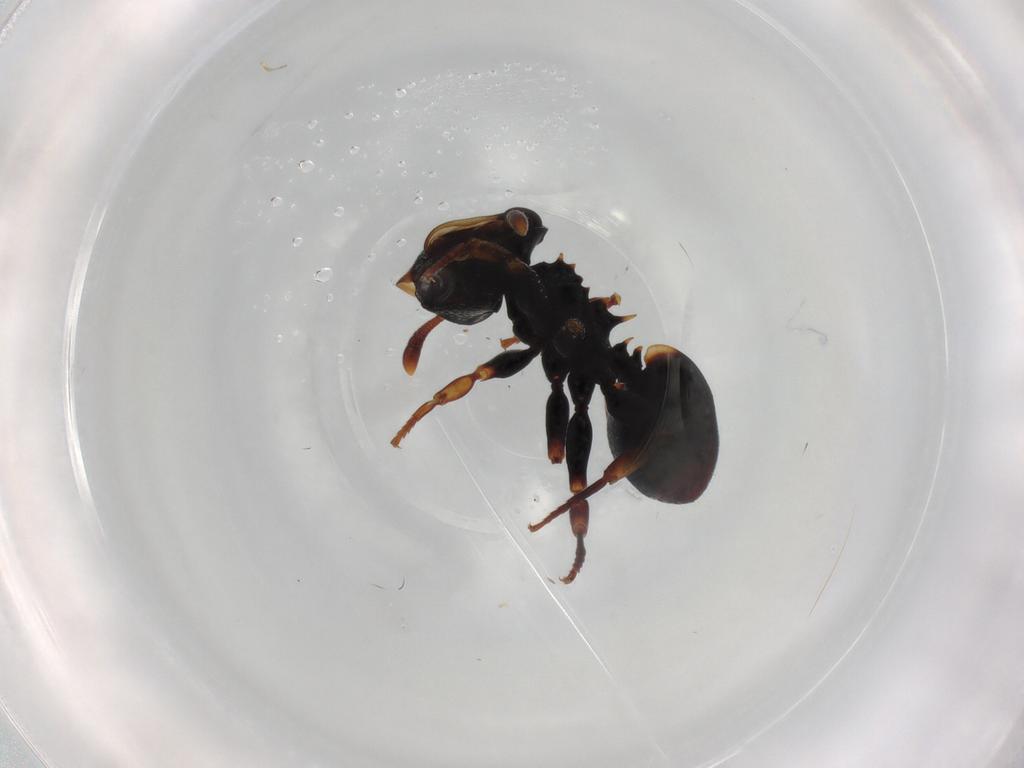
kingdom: Animalia
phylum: Arthropoda
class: Insecta
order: Hymenoptera
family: Formicidae
